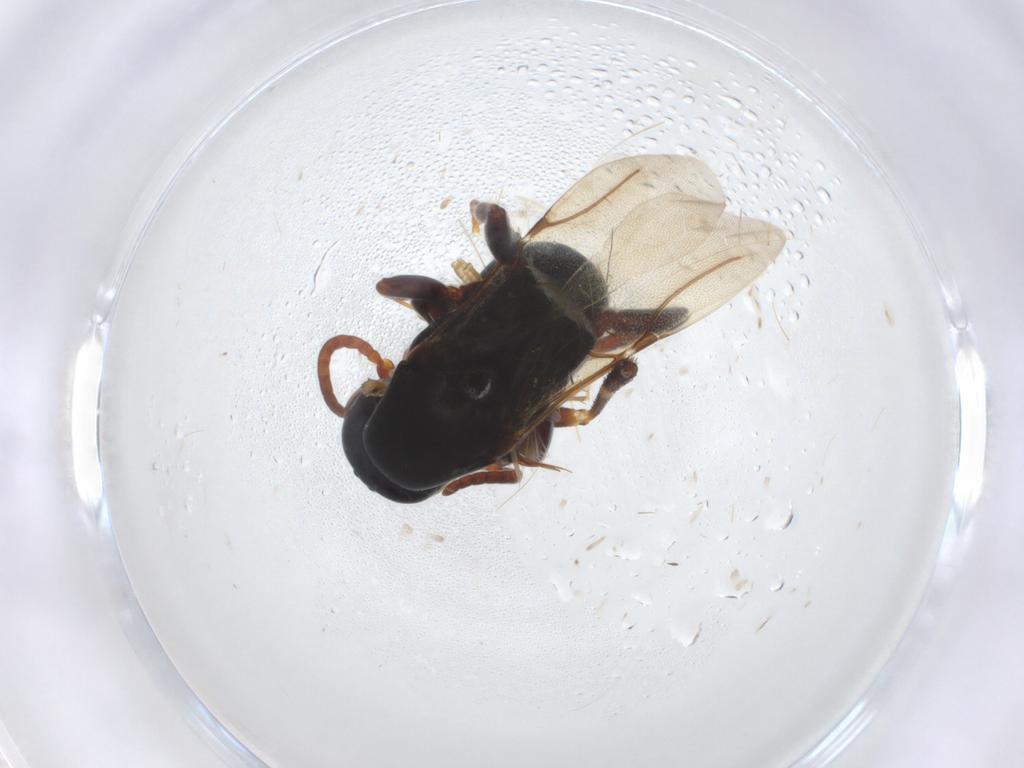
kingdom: Animalia
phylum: Arthropoda
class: Insecta
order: Hymenoptera
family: Bethylidae
